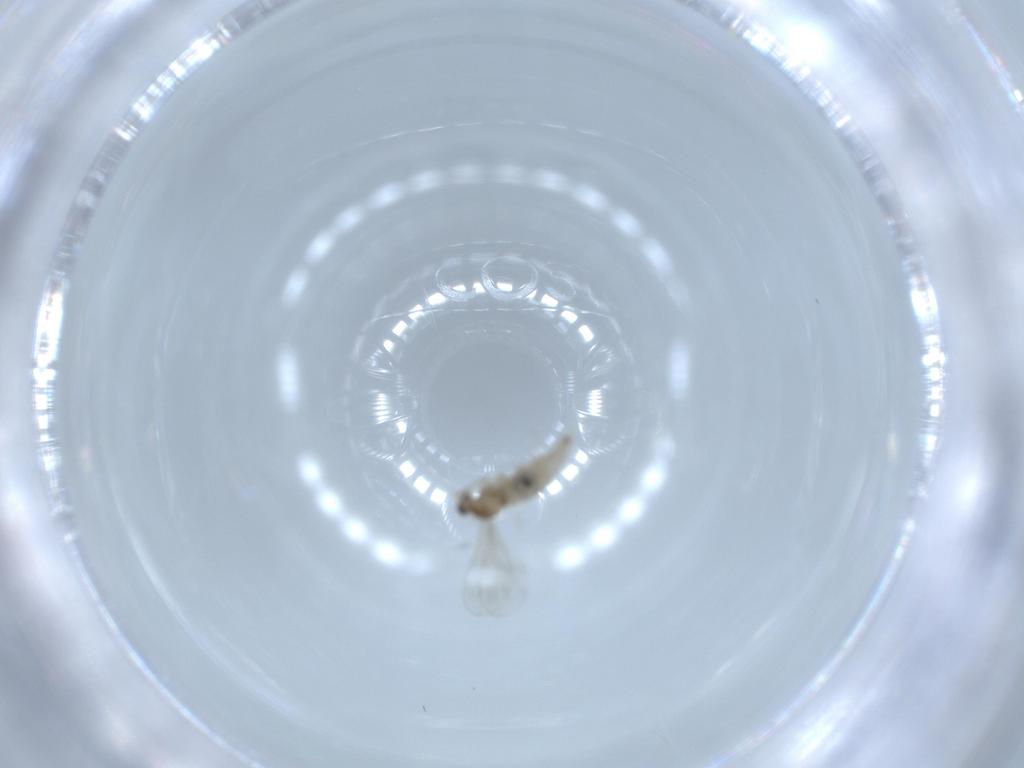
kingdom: Animalia
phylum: Arthropoda
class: Insecta
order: Diptera
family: Cecidomyiidae
